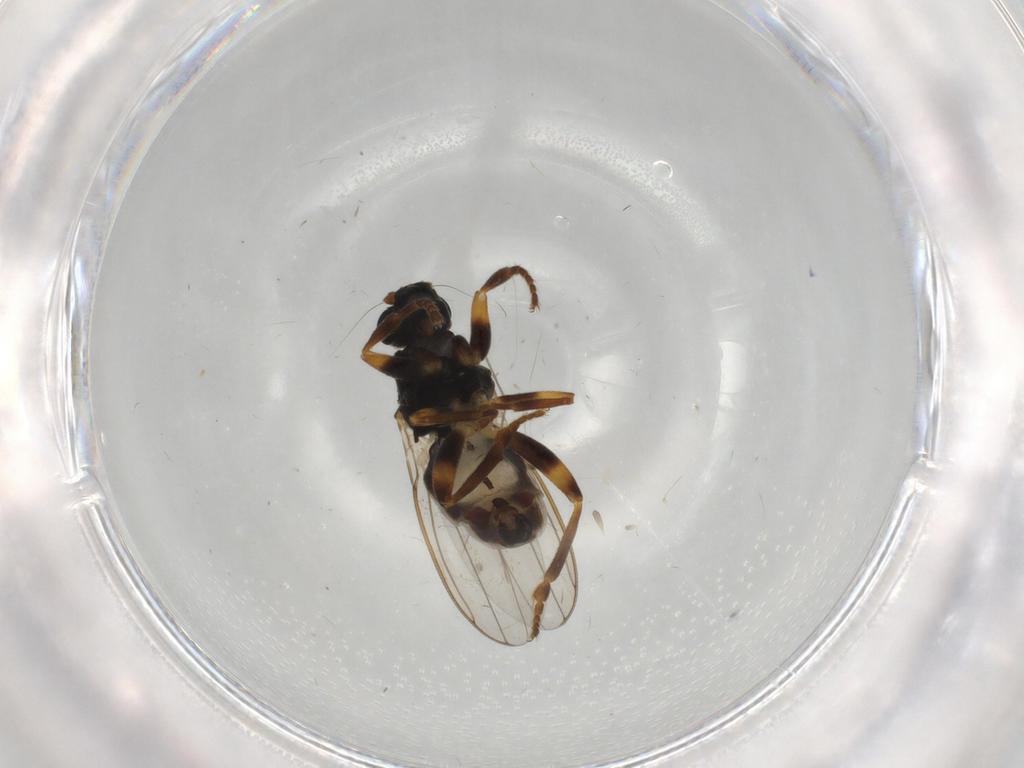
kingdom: Animalia
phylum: Arthropoda
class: Insecta
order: Diptera
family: Sphaeroceridae
